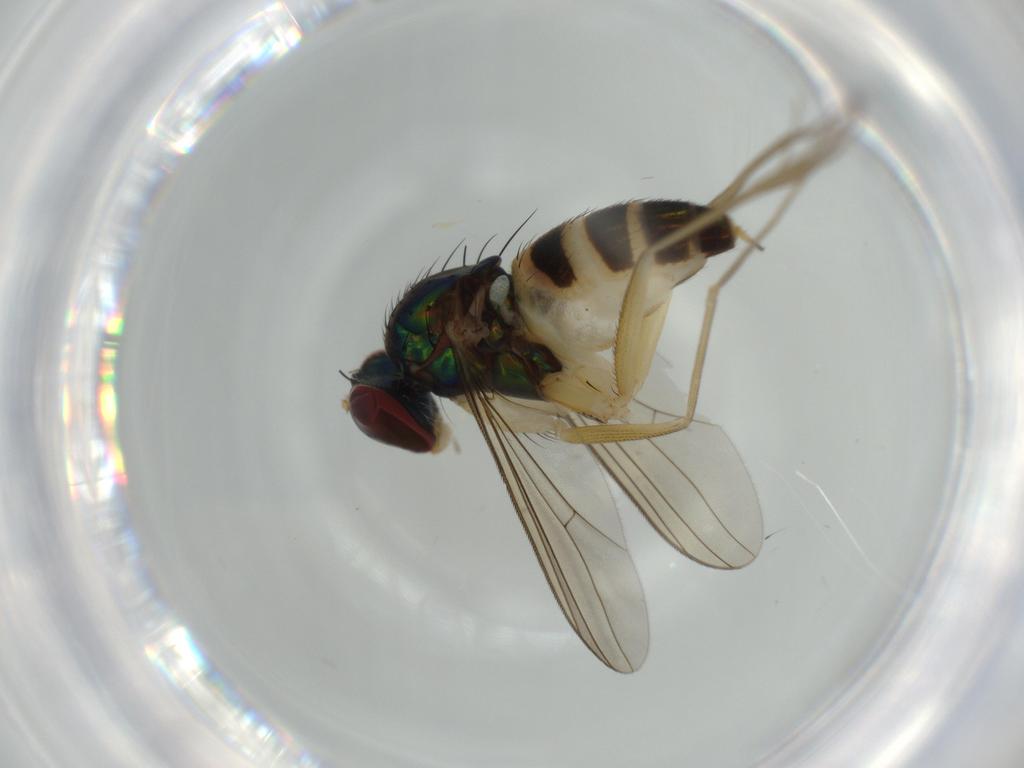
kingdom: Animalia
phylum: Arthropoda
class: Insecta
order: Diptera
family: Dolichopodidae
